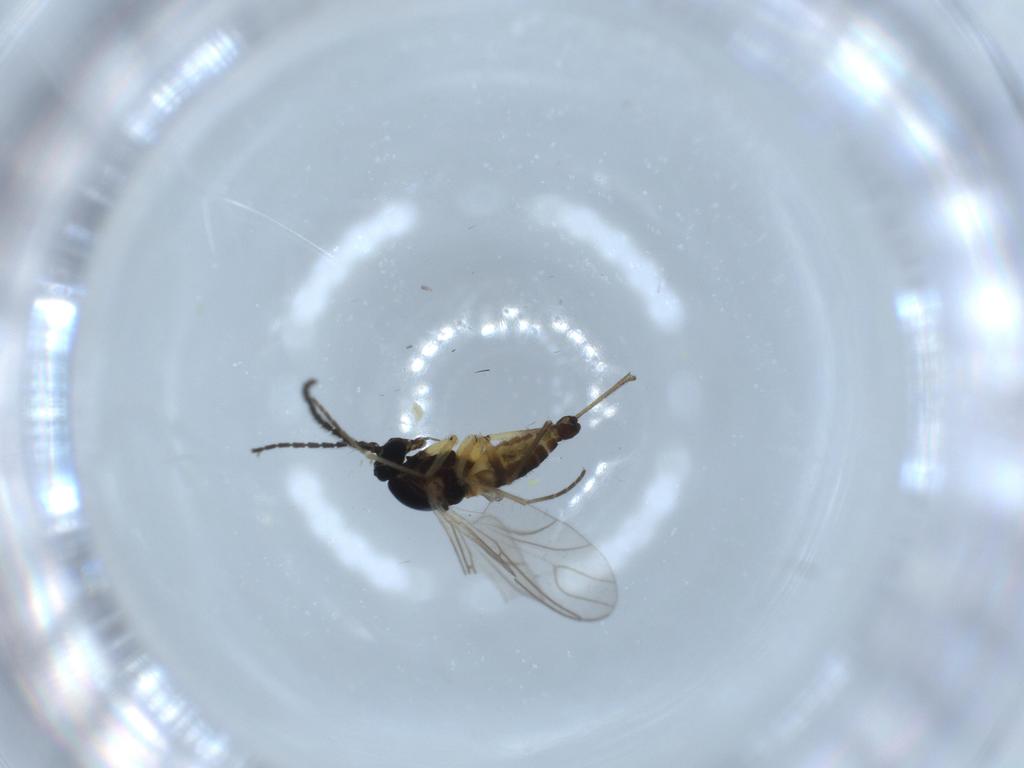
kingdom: Animalia
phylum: Arthropoda
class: Insecta
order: Diptera
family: Sciaridae
